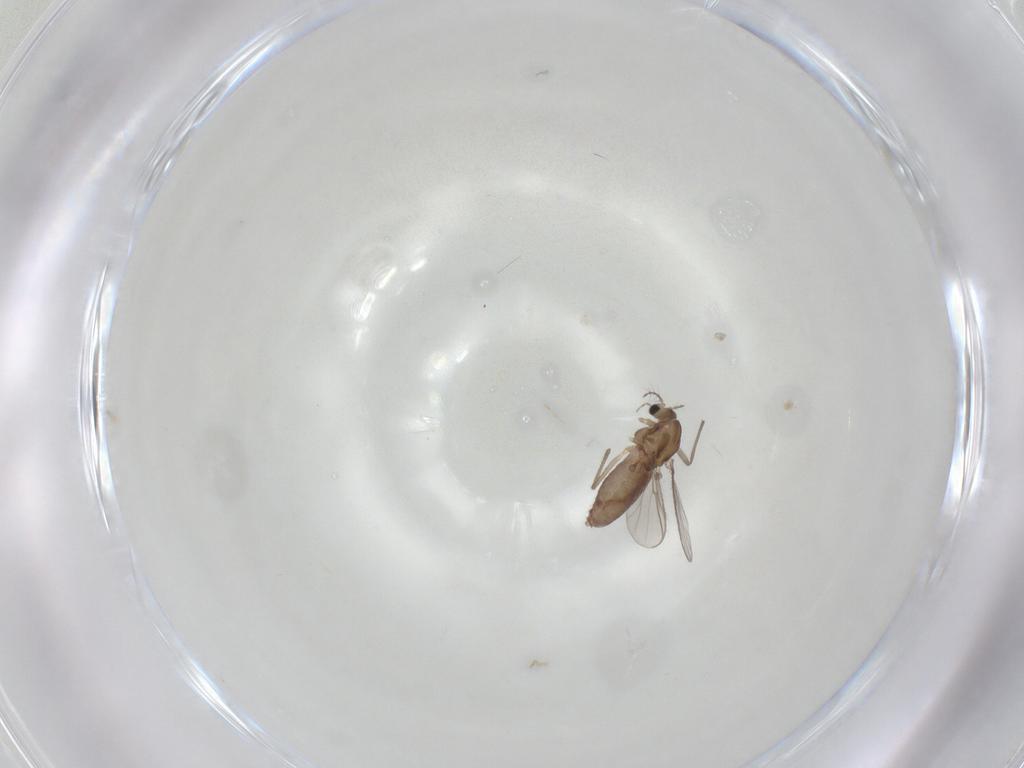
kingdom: Animalia
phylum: Arthropoda
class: Insecta
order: Diptera
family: Chironomidae
